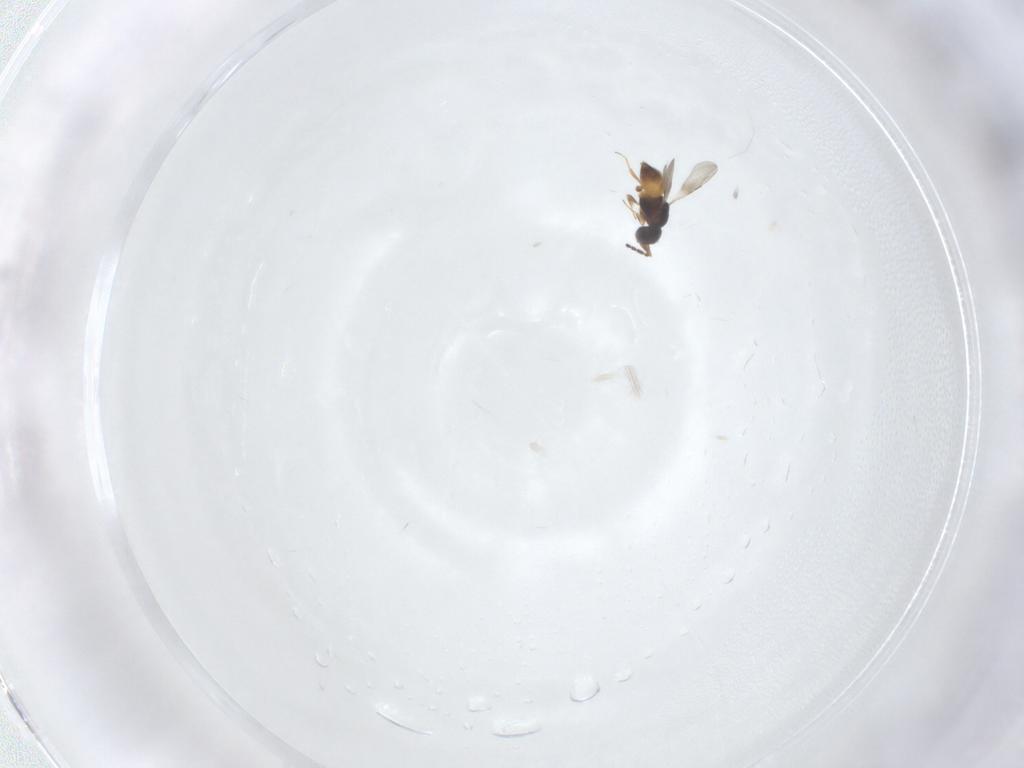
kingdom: Animalia
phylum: Arthropoda
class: Insecta
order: Hymenoptera
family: Ceraphronidae
